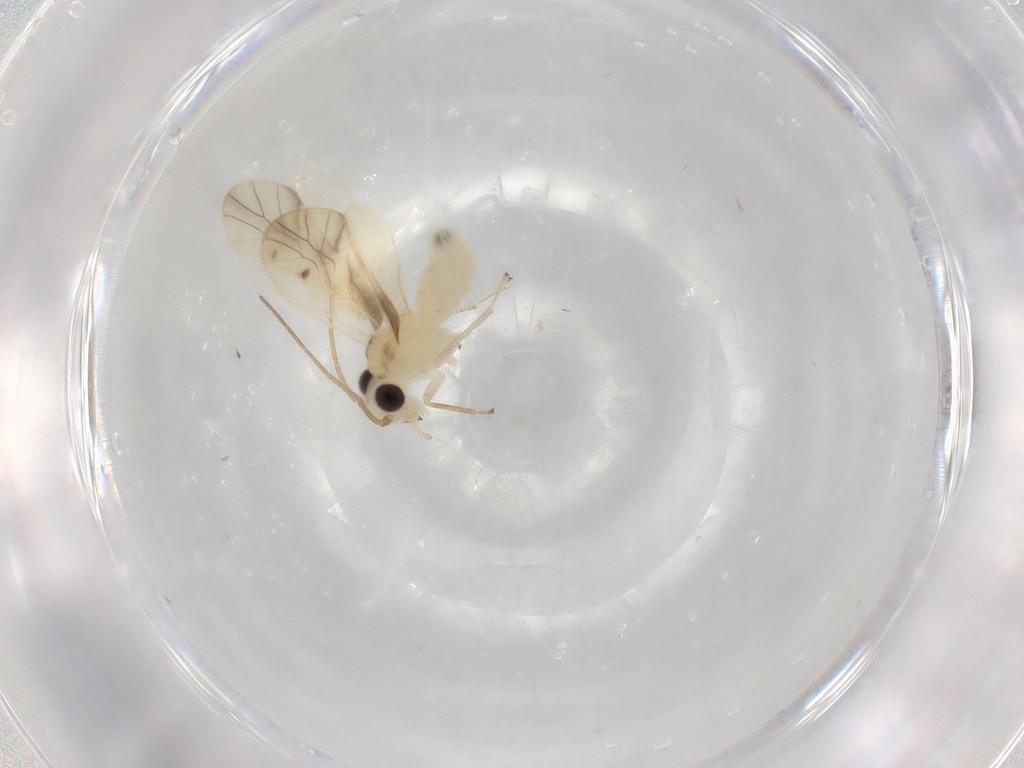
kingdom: Animalia
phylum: Arthropoda
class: Insecta
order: Psocodea
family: Caeciliusidae
